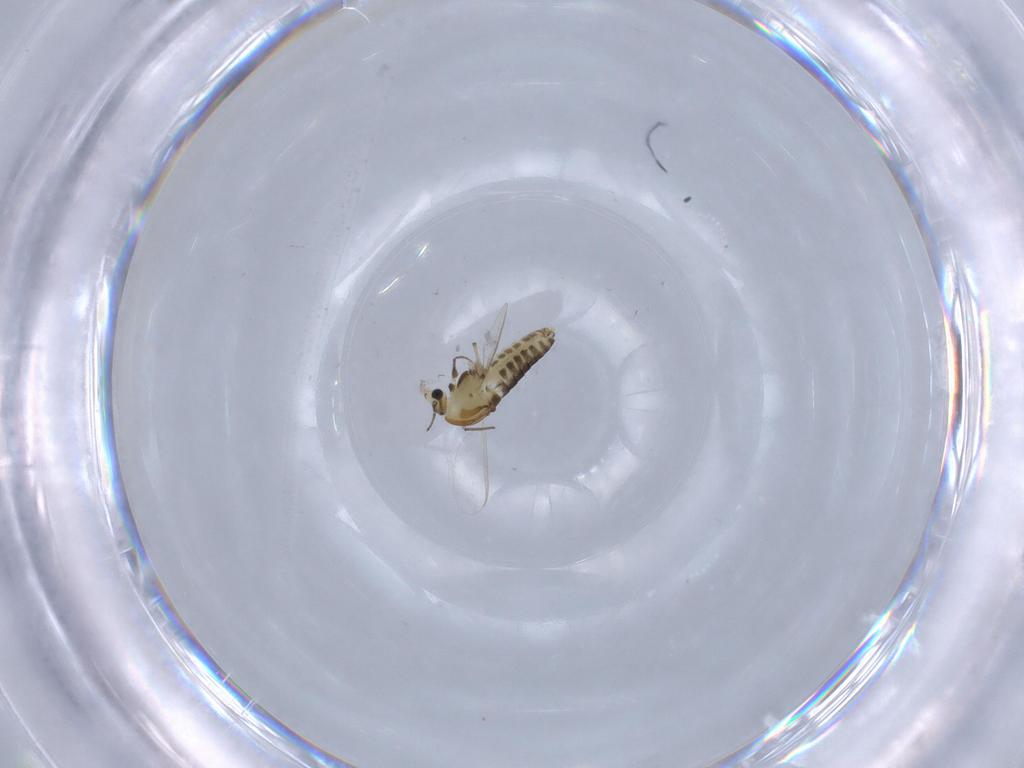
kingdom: Animalia
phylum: Arthropoda
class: Insecta
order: Diptera
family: Chironomidae
